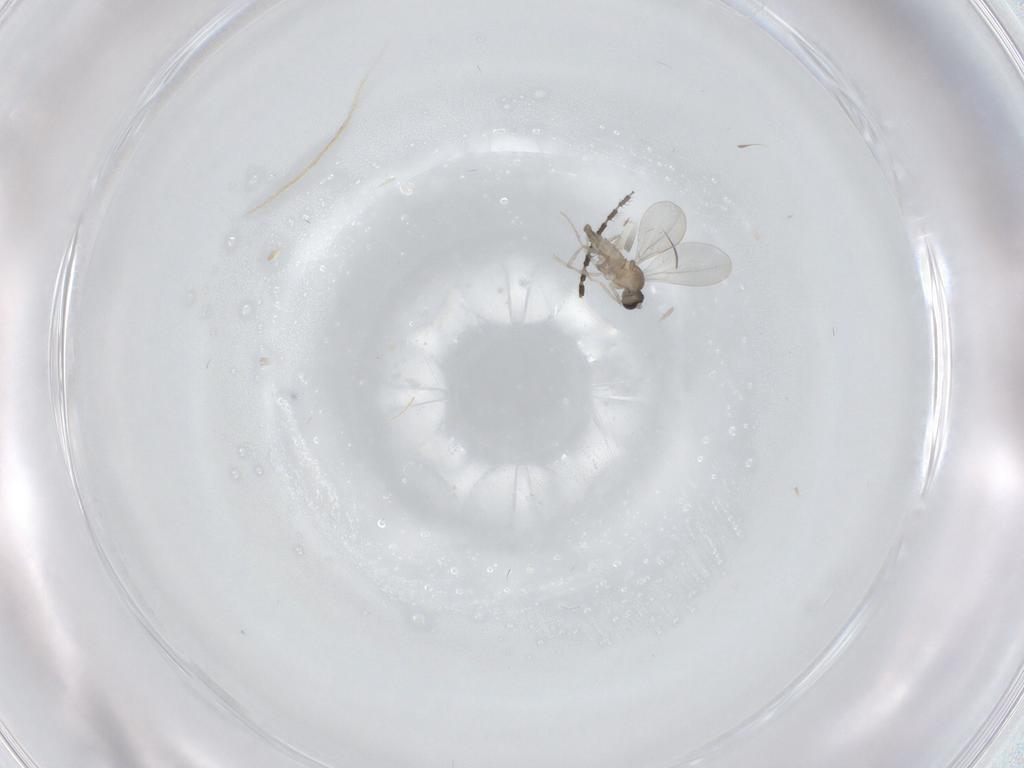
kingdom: Animalia
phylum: Arthropoda
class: Insecta
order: Diptera
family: Cecidomyiidae
